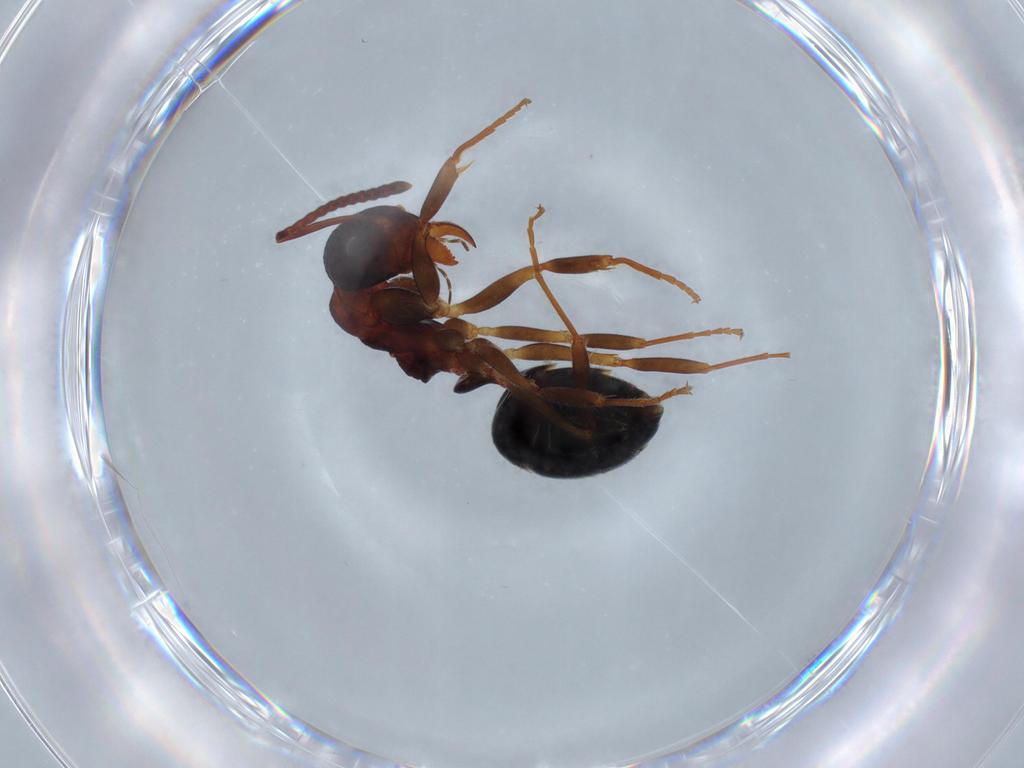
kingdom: Animalia
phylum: Arthropoda
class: Insecta
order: Hymenoptera
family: Formicidae
